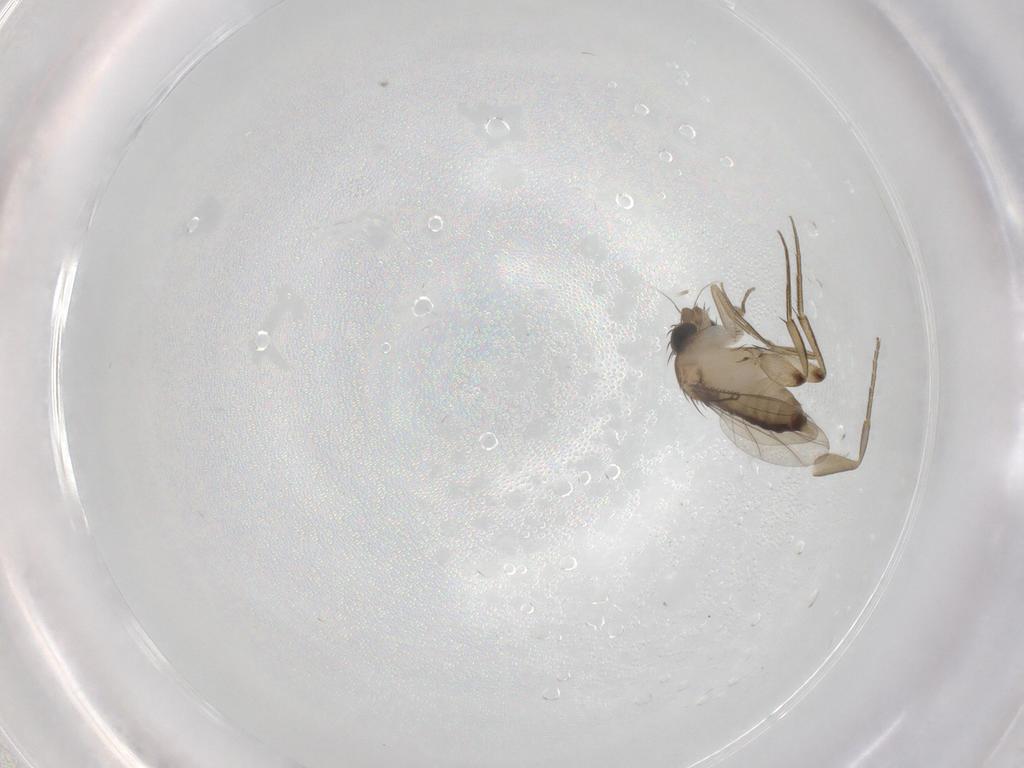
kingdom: Animalia
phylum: Arthropoda
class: Insecta
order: Diptera
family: Phoridae
